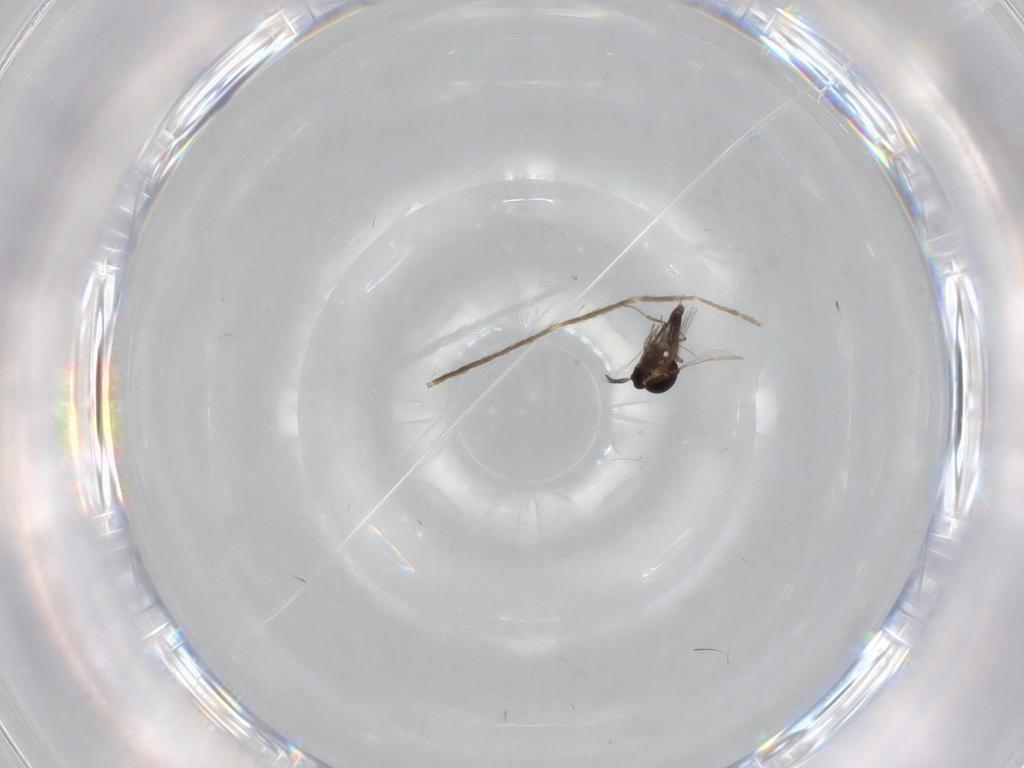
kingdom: Animalia
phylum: Arthropoda
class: Insecta
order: Diptera
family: Ceratopogonidae
